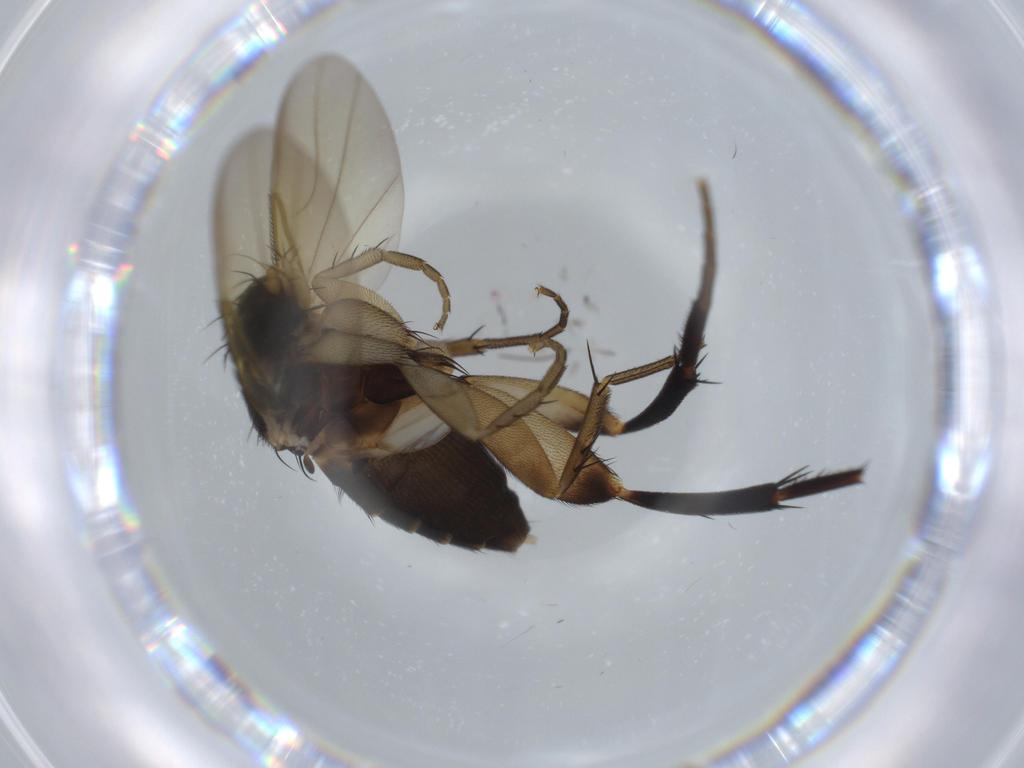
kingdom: Animalia
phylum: Arthropoda
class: Insecta
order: Diptera
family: Phoridae
